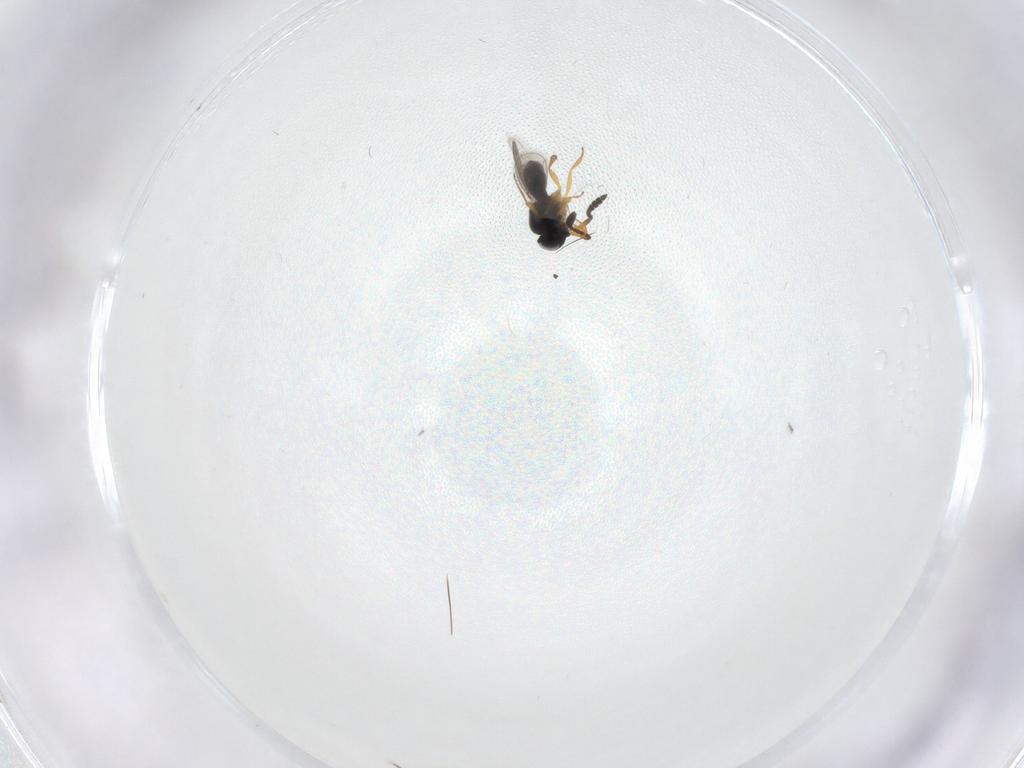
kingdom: Animalia
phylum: Arthropoda
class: Insecta
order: Hymenoptera
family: Scelionidae
